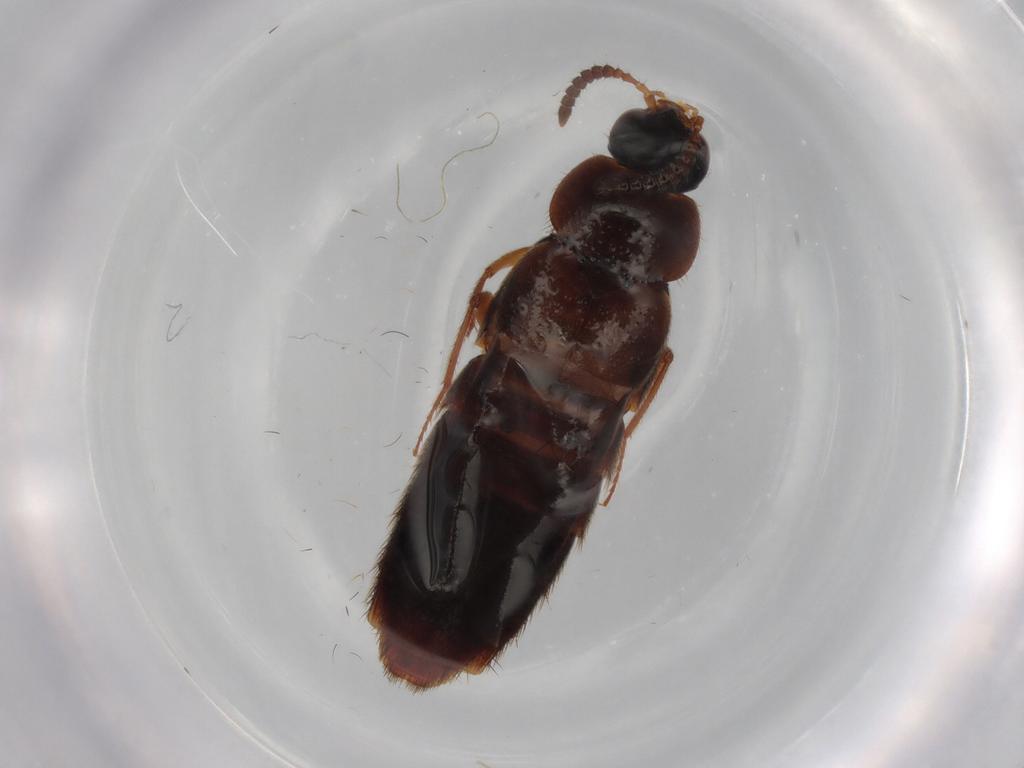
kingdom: Animalia
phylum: Arthropoda
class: Insecta
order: Coleoptera
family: Staphylinidae
